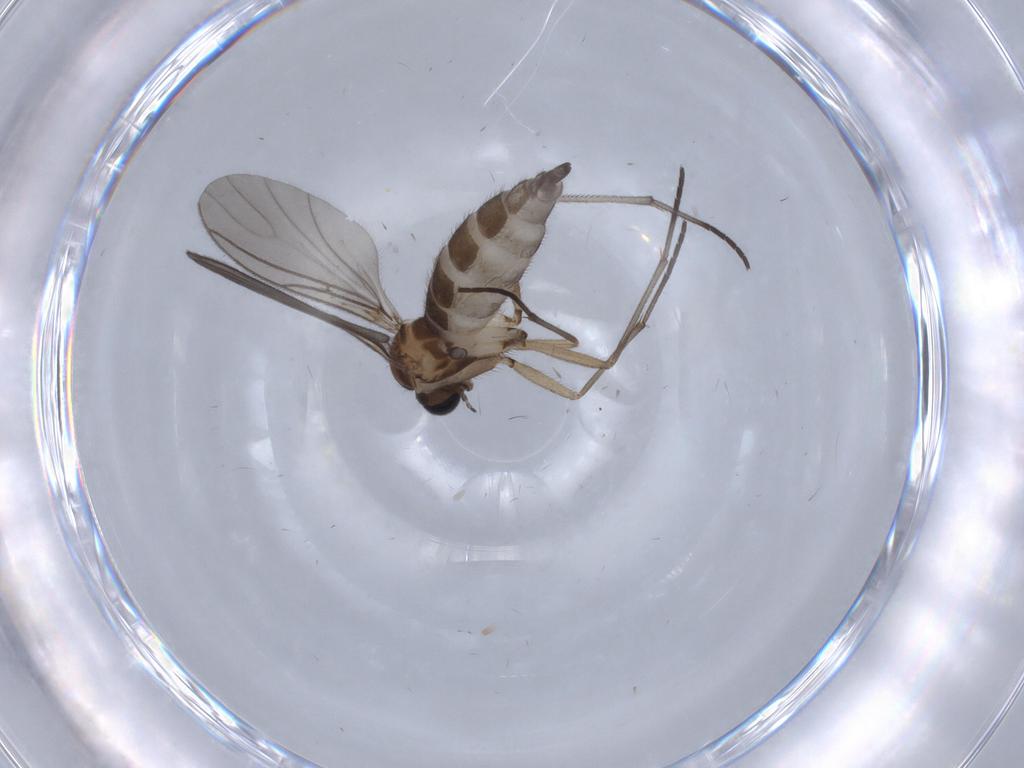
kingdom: Animalia
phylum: Arthropoda
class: Insecta
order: Diptera
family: Sciaridae
